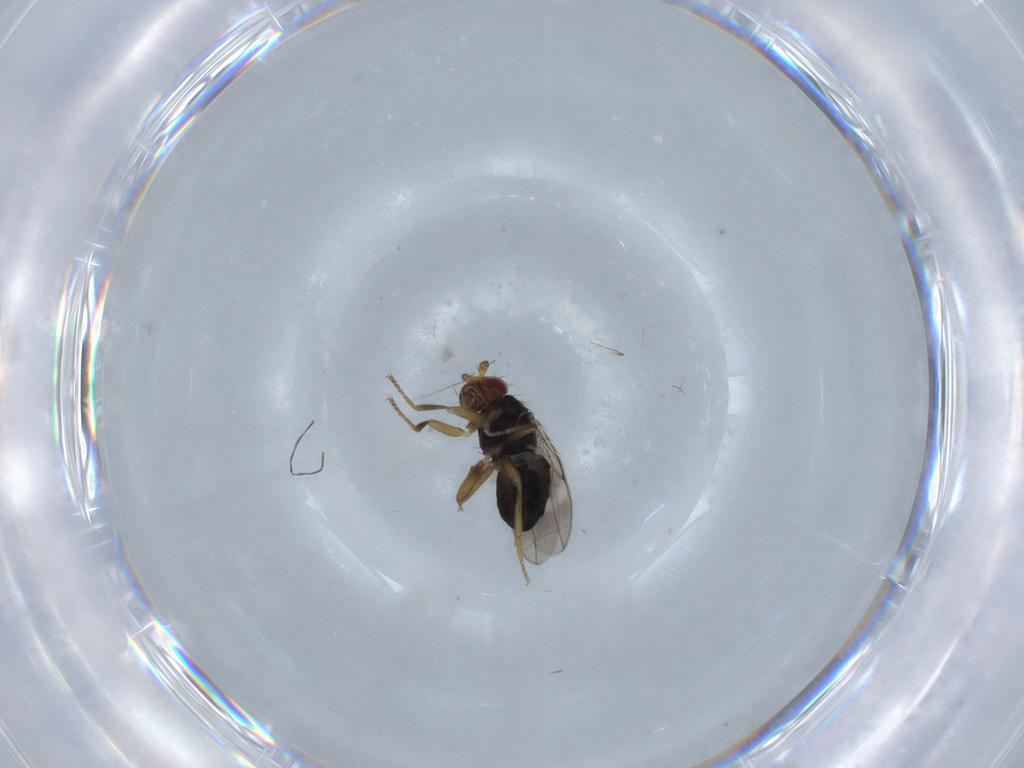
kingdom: Animalia
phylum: Arthropoda
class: Insecta
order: Diptera
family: Sphaeroceridae
